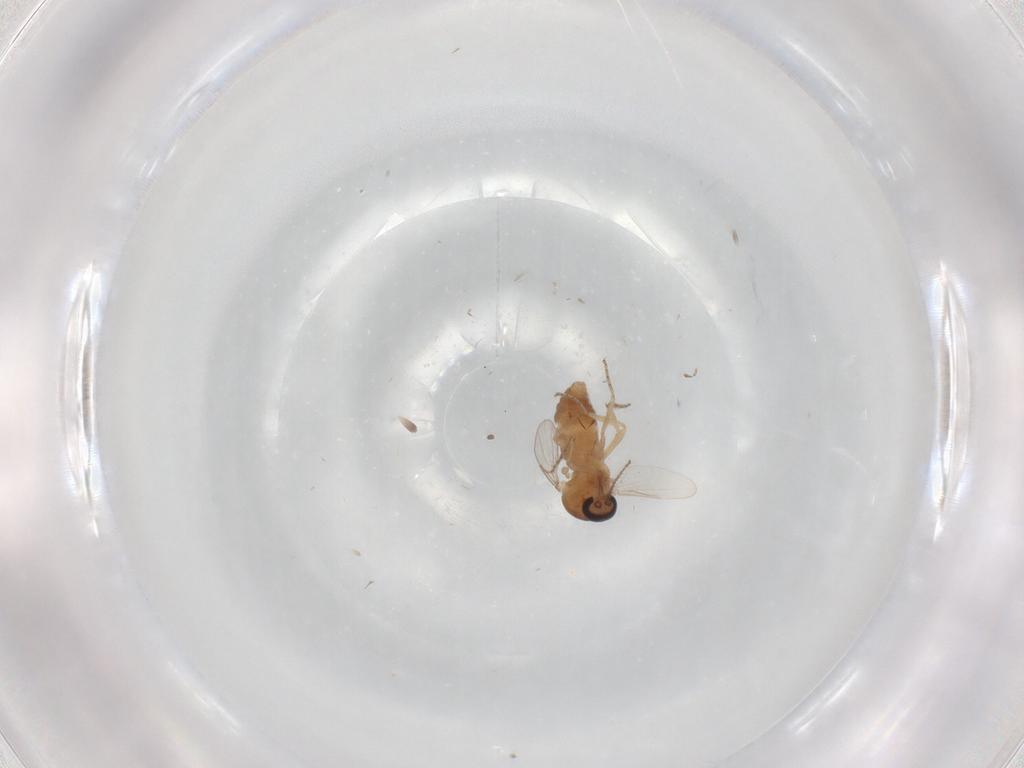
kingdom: Animalia
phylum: Arthropoda
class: Insecta
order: Diptera
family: Ceratopogonidae
